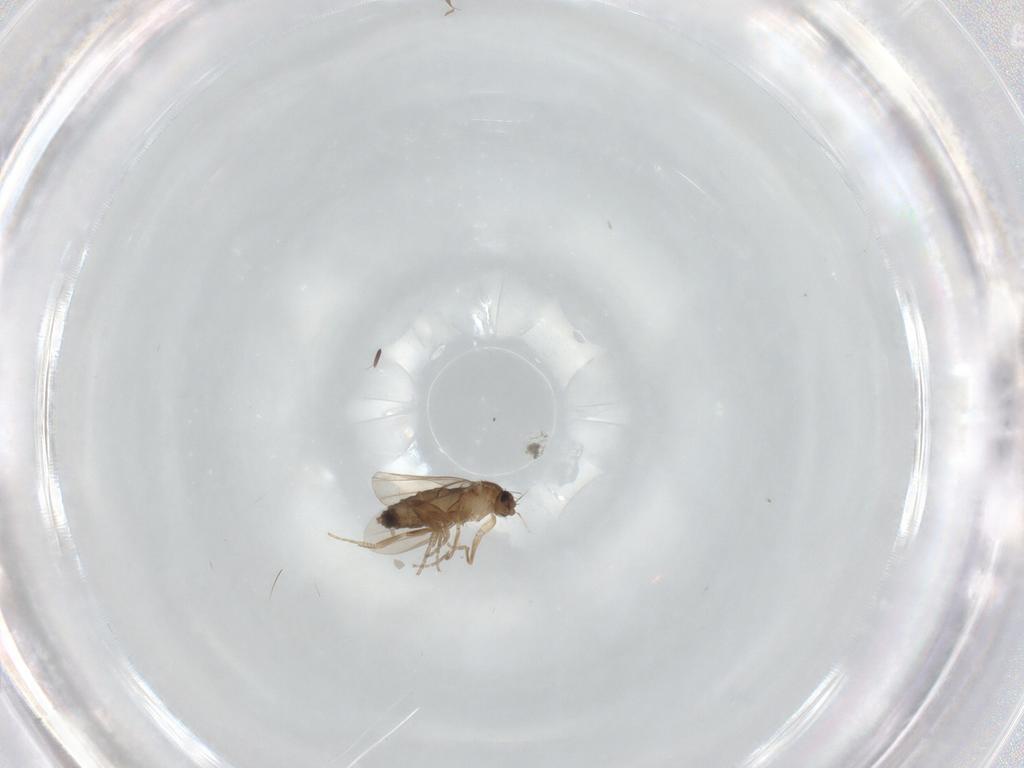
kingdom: Animalia
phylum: Arthropoda
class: Insecta
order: Diptera
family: Phoridae
